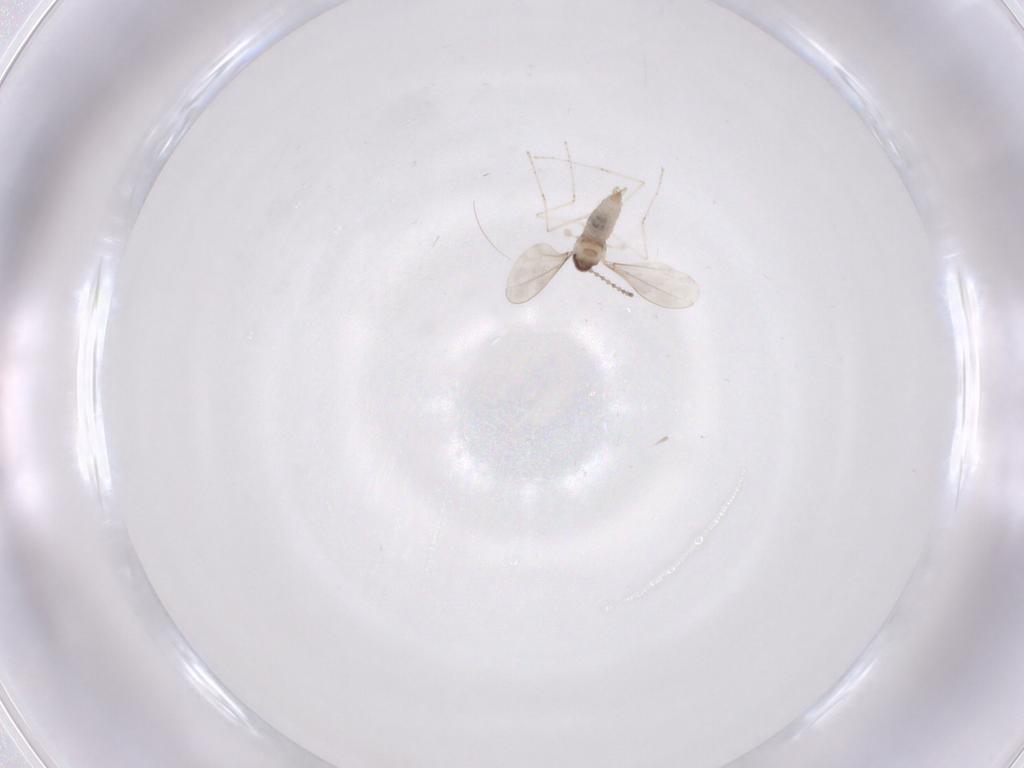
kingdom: Animalia
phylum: Arthropoda
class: Insecta
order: Diptera
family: Cecidomyiidae
